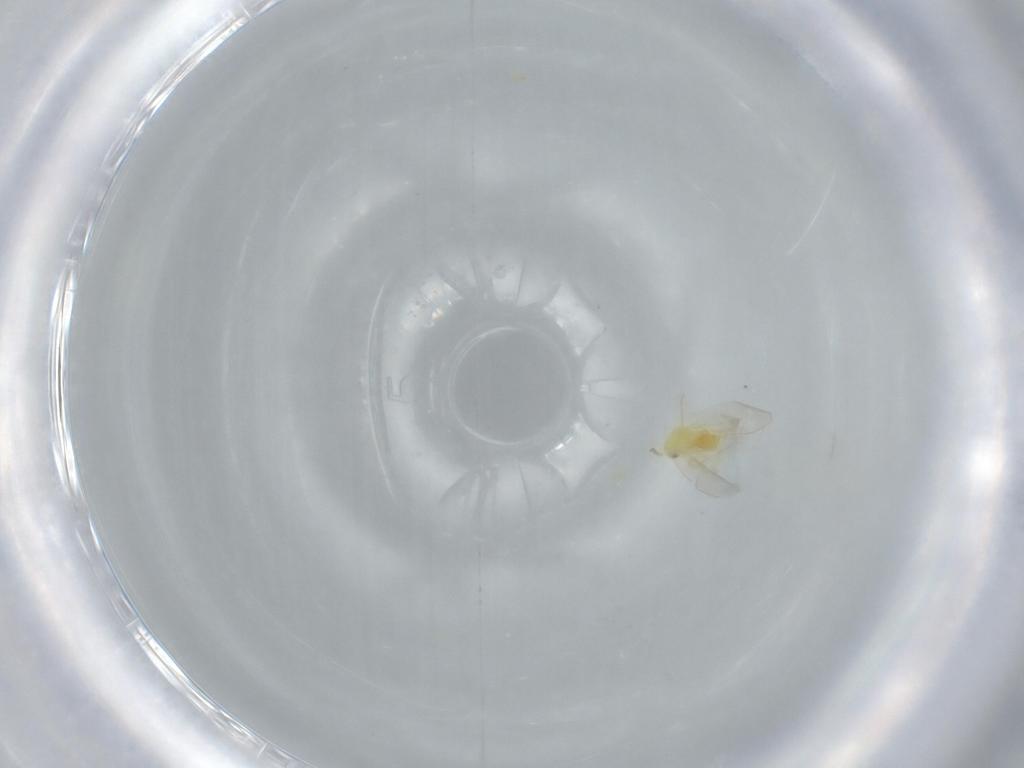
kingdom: Animalia
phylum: Arthropoda
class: Insecta
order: Hemiptera
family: Aleyrodidae
